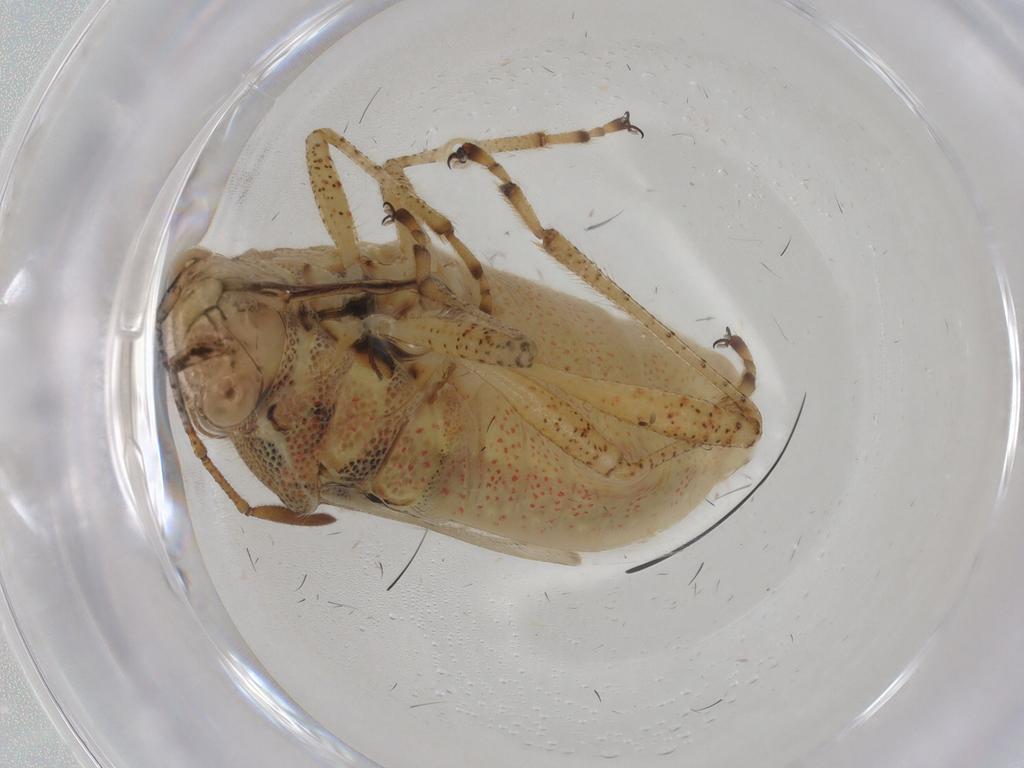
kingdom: Animalia
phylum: Arthropoda
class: Insecta
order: Hemiptera
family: Rhopalidae
